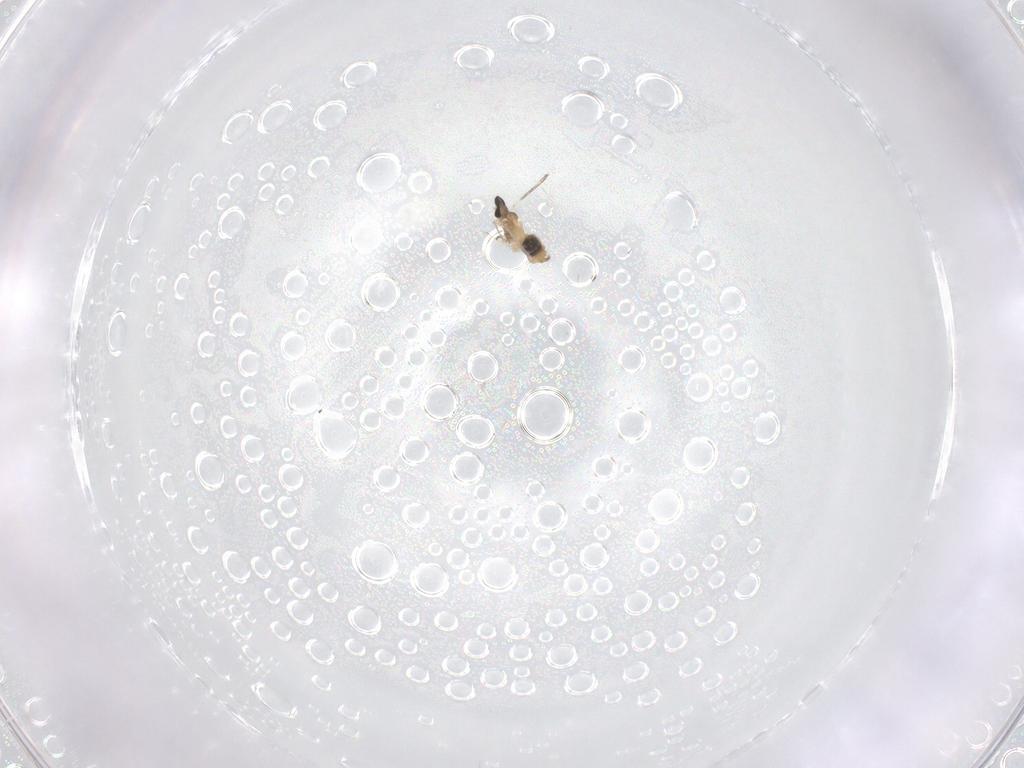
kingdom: Animalia
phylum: Arthropoda
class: Insecta
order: Diptera
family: Cecidomyiidae
